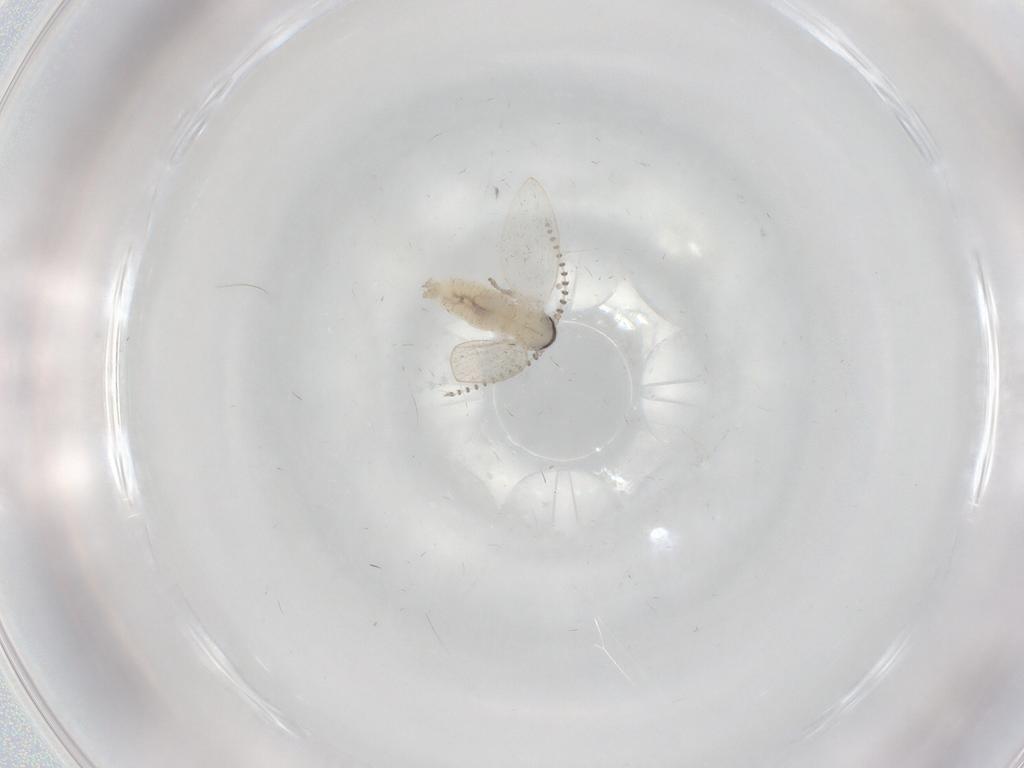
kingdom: Animalia
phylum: Arthropoda
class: Insecta
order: Diptera
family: Psychodidae
